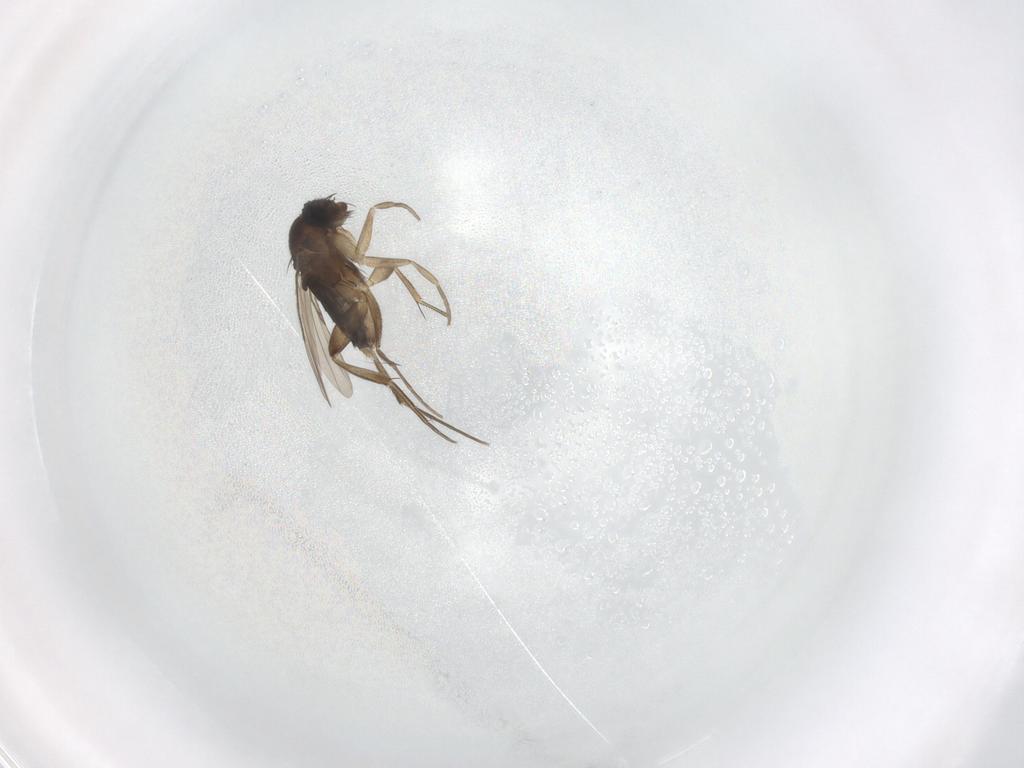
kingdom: Animalia
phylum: Arthropoda
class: Insecta
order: Diptera
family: Phoridae
